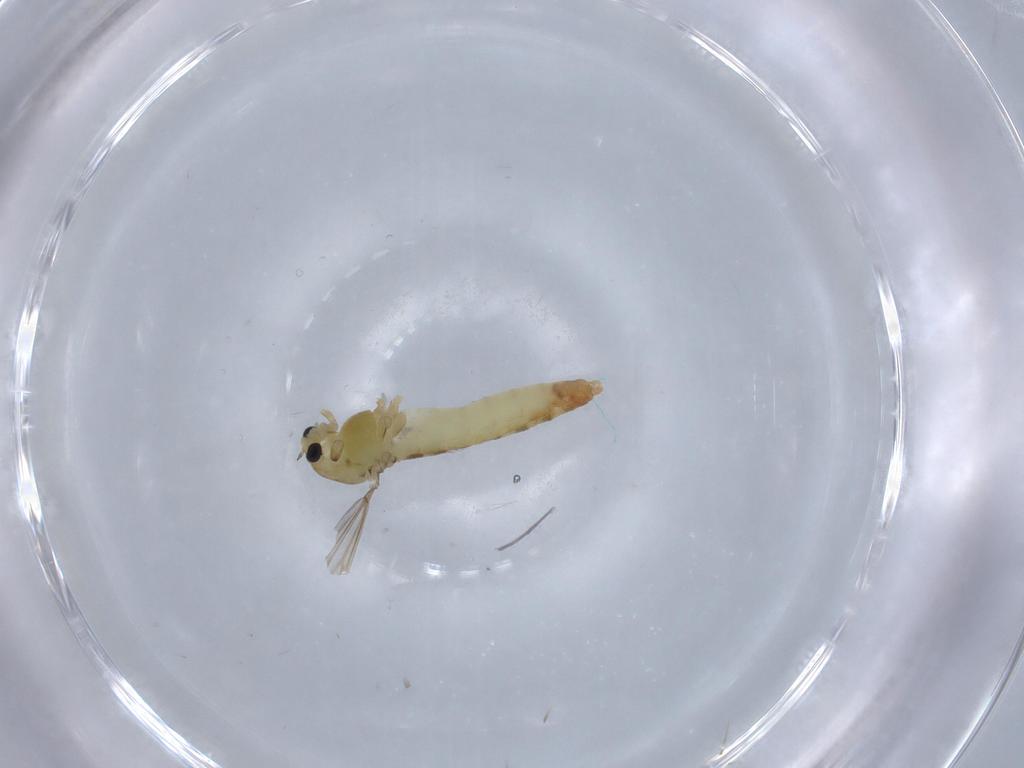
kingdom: Animalia
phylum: Arthropoda
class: Insecta
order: Diptera
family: Chironomidae
